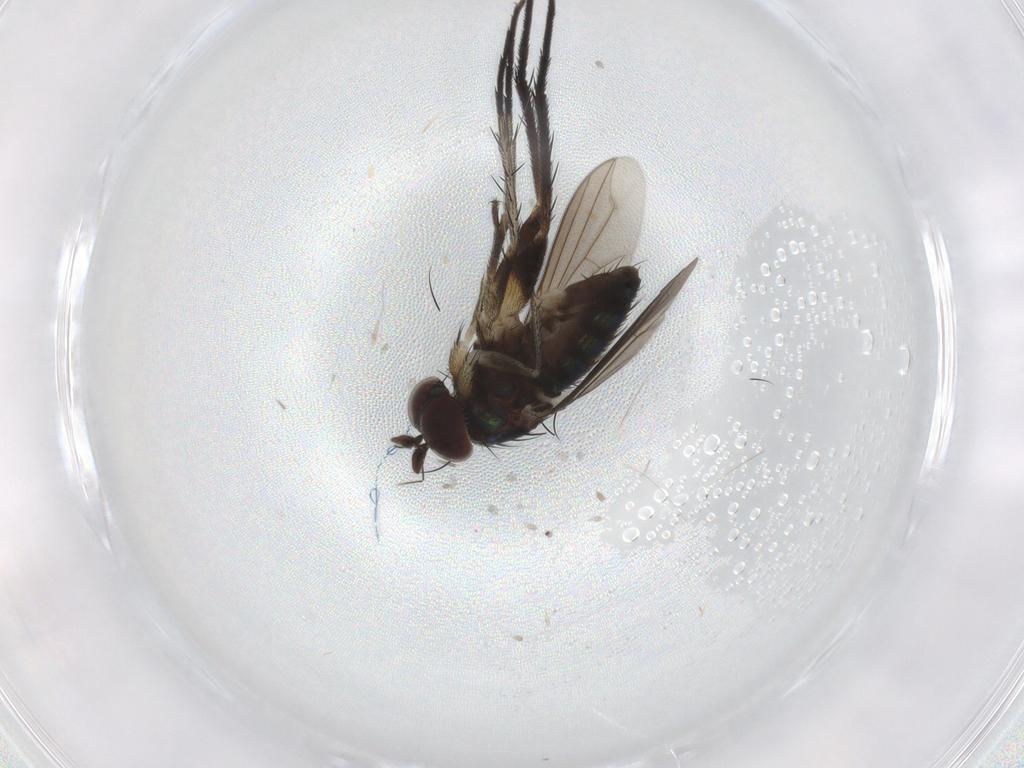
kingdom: Animalia
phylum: Arthropoda
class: Insecta
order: Diptera
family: Dolichopodidae
